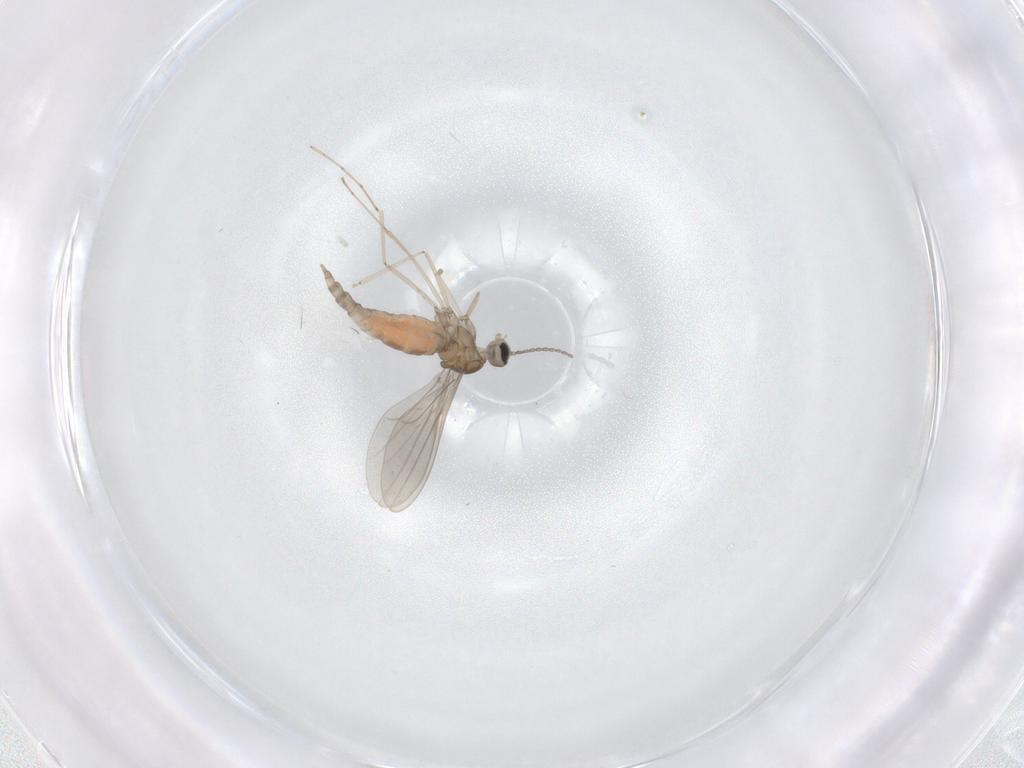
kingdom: Animalia
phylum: Arthropoda
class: Insecta
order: Diptera
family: Cecidomyiidae
